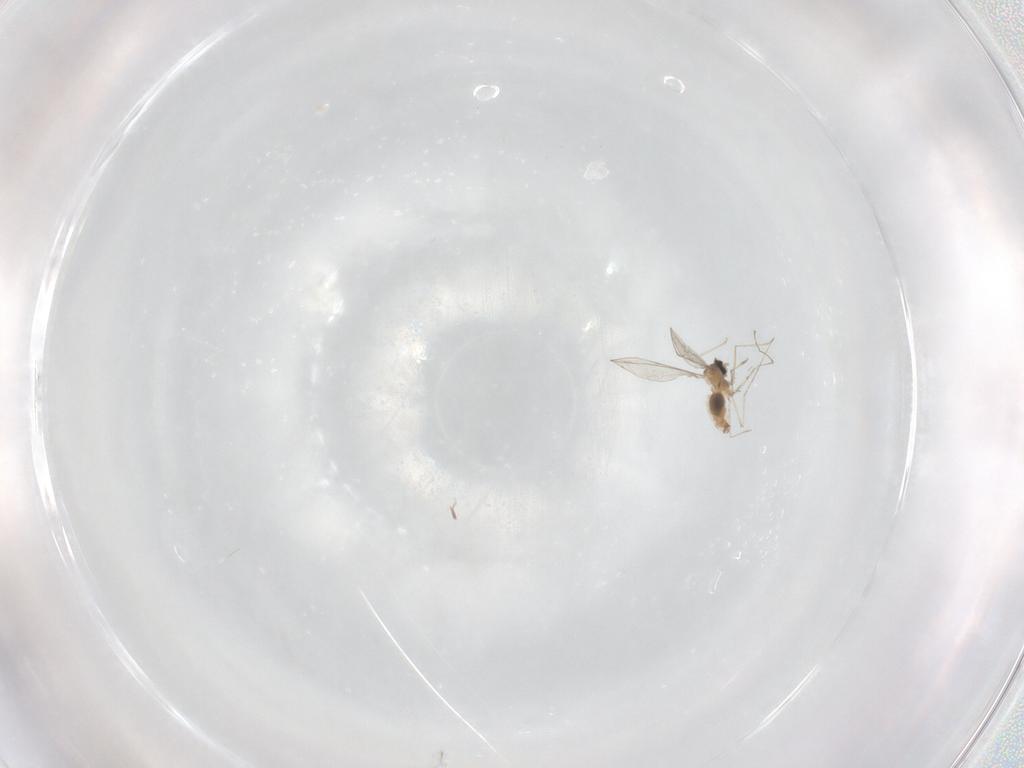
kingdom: Animalia
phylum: Arthropoda
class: Insecta
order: Diptera
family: Cecidomyiidae
